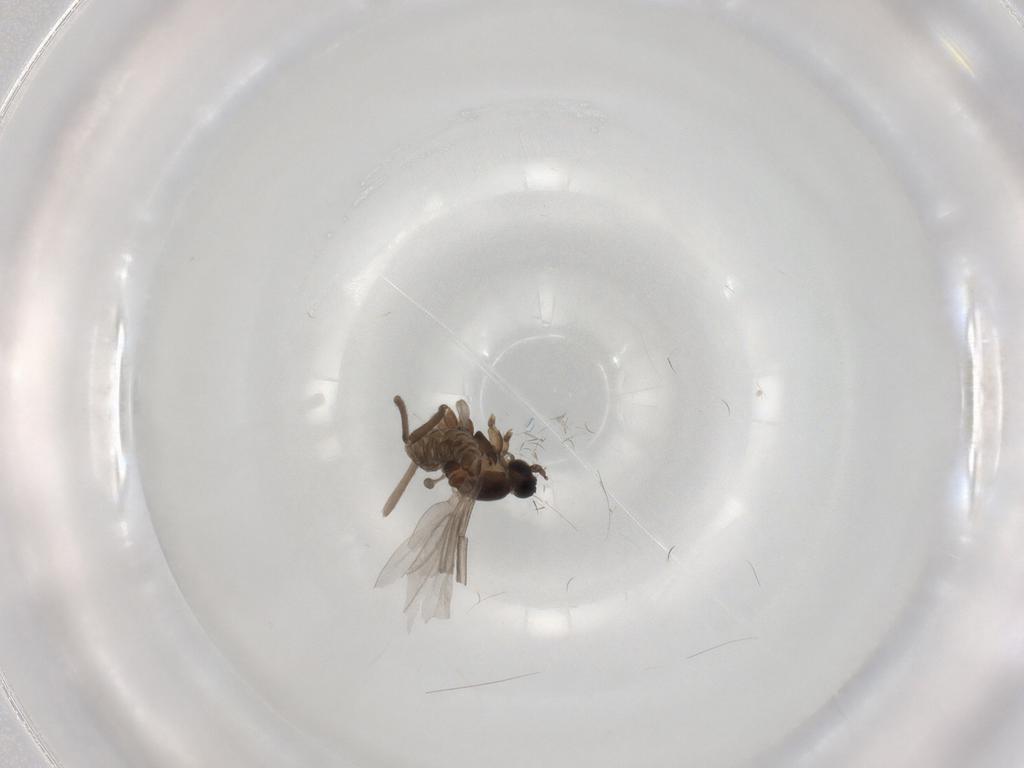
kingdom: Animalia
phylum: Arthropoda
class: Insecta
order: Diptera
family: Cecidomyiidae
